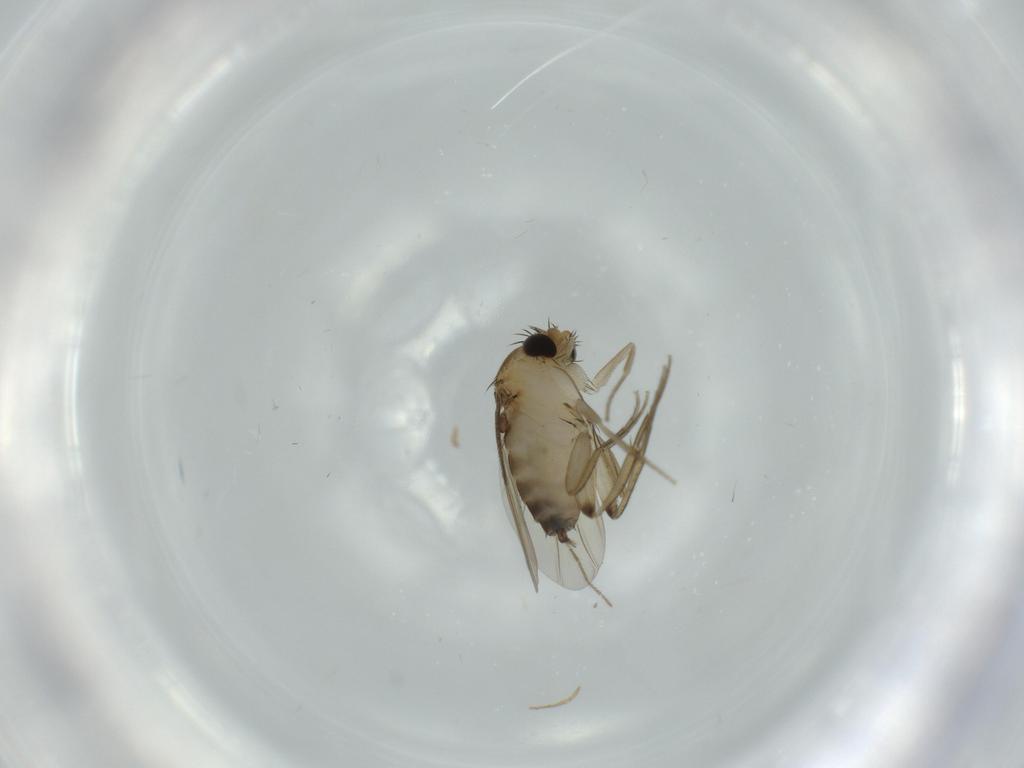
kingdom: Animalia
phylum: Arthropoda
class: Insecta
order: Diptera
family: Phoridae
